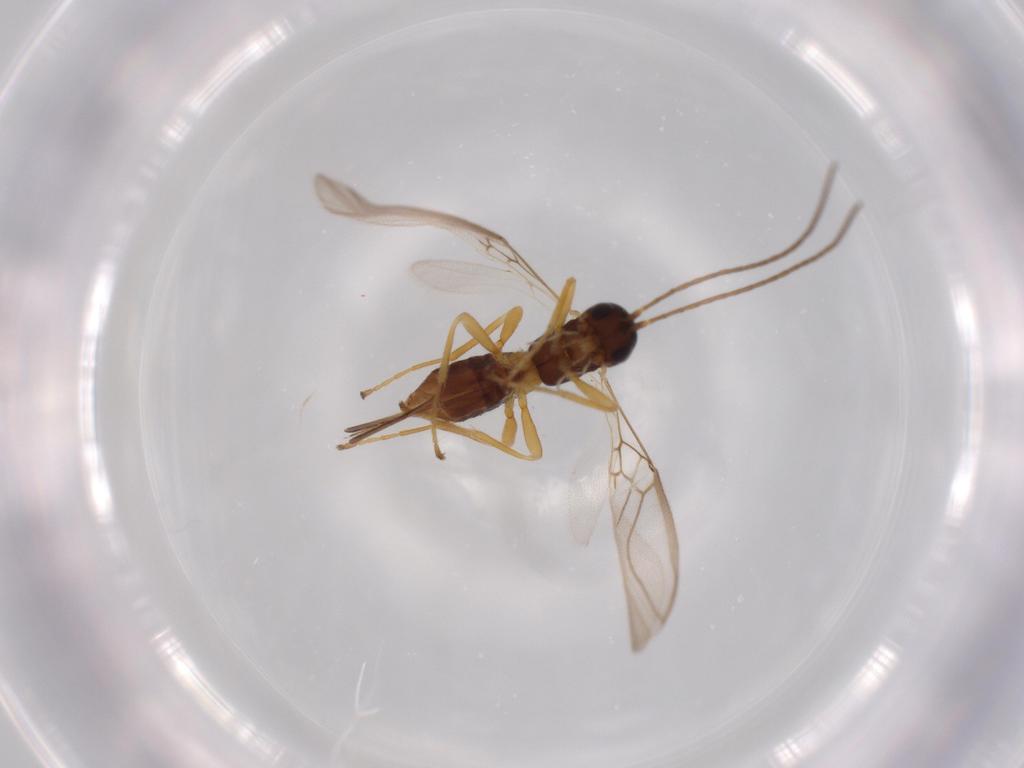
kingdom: Animalia
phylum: Arthropoda
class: Insecta
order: Hymenoptera
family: Braconidae
